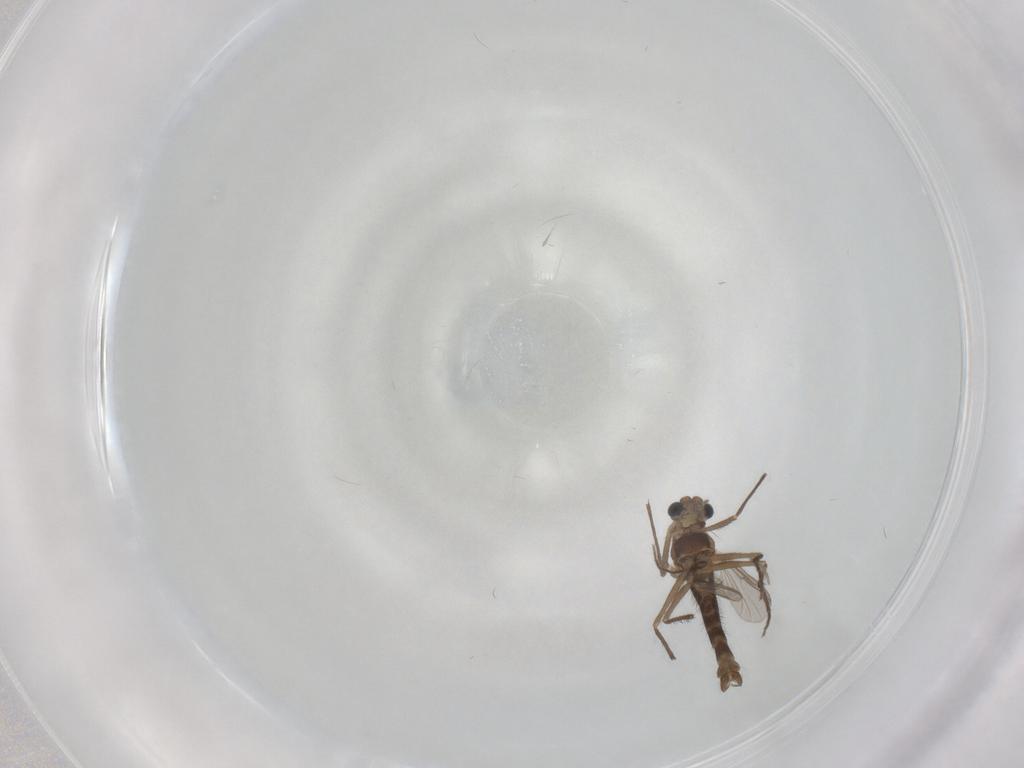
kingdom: Animalia
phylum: Arthropoda
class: Insecta
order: Diptera
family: Chironomidae
